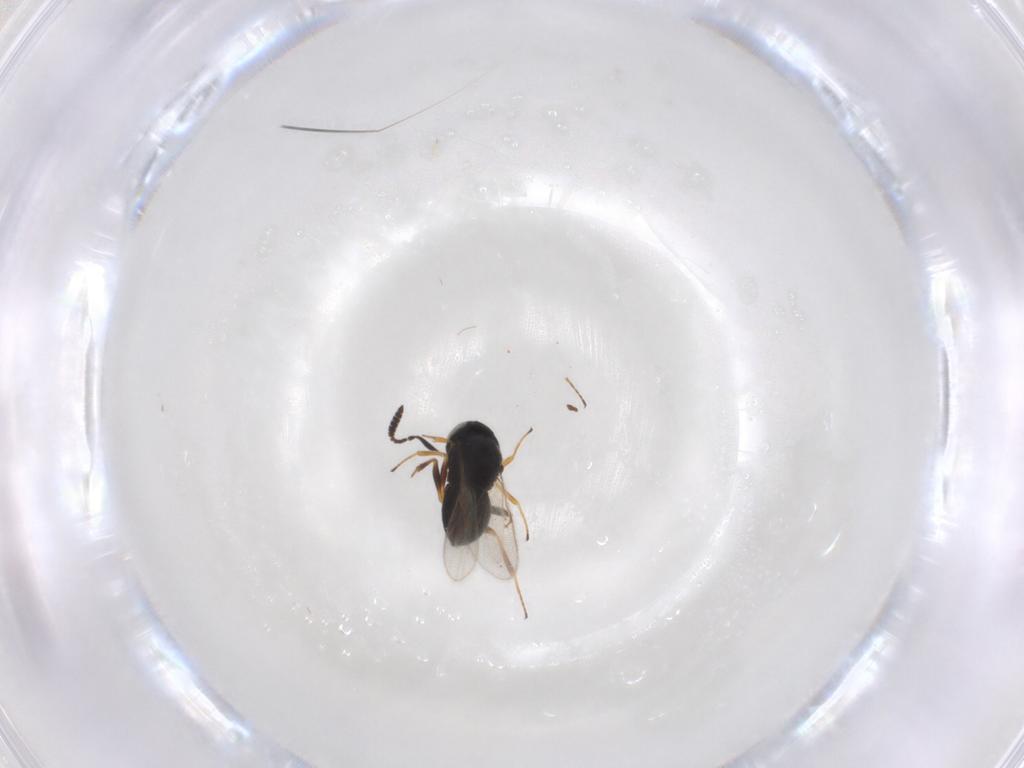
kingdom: Animalia
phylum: Arthropoda
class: Insecta
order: Hymenoptera
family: Scelionidae
